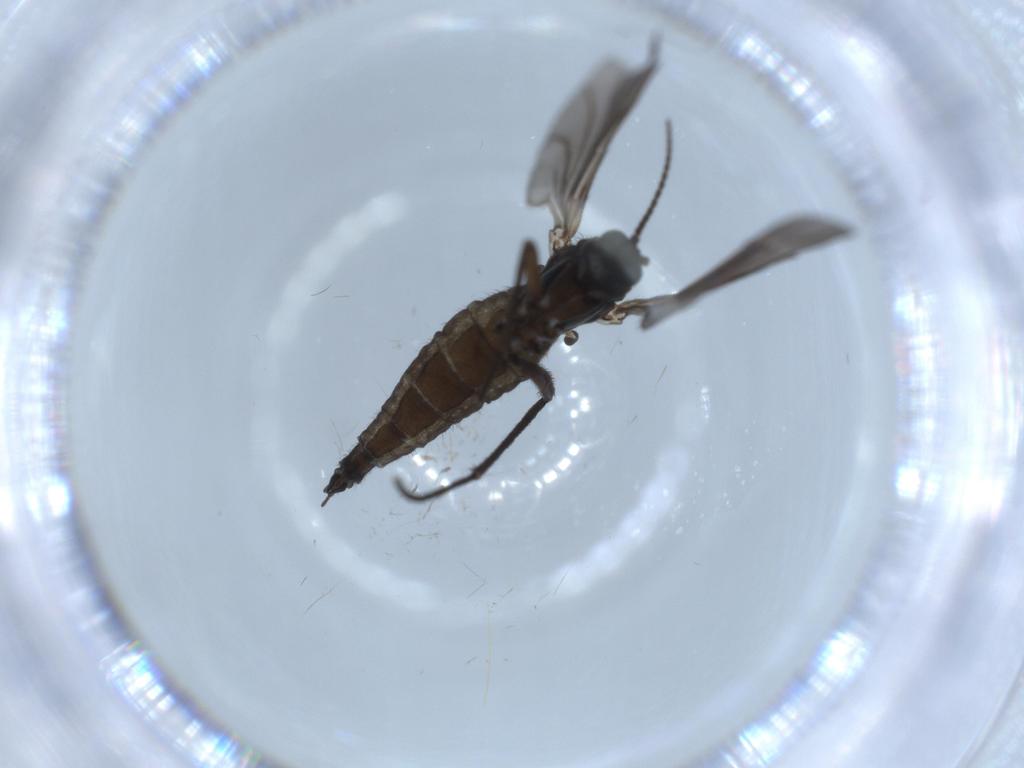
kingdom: Animalia
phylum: Arthropoda
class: Insecta
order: Diptera
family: Sciaridae
